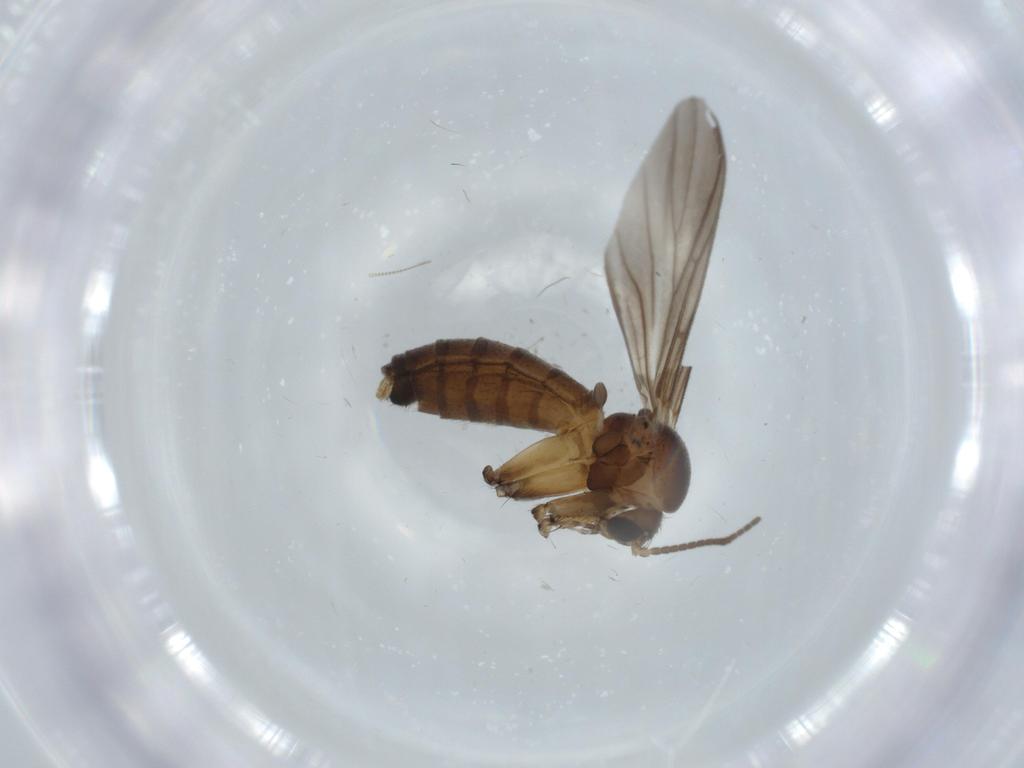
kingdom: Animalia
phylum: Arthropoda
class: Insecta
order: Diptera
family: Mycetophilidae
